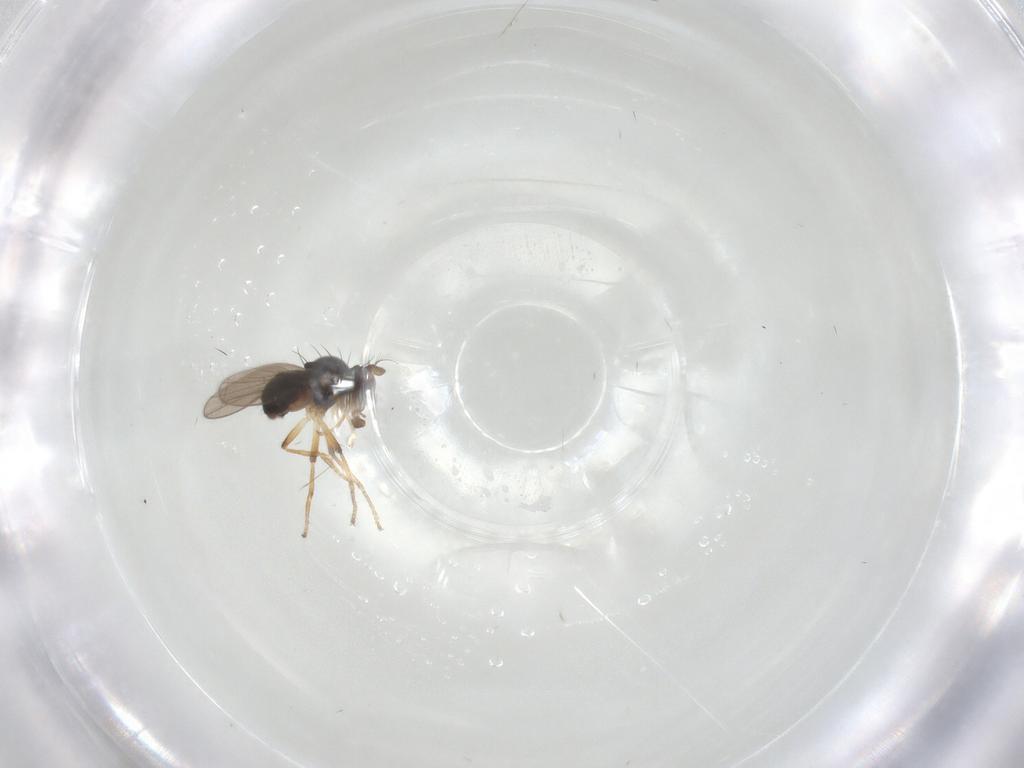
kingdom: Animalia
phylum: Arthropoda
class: Insecta
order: Diptera
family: Ephydridae
